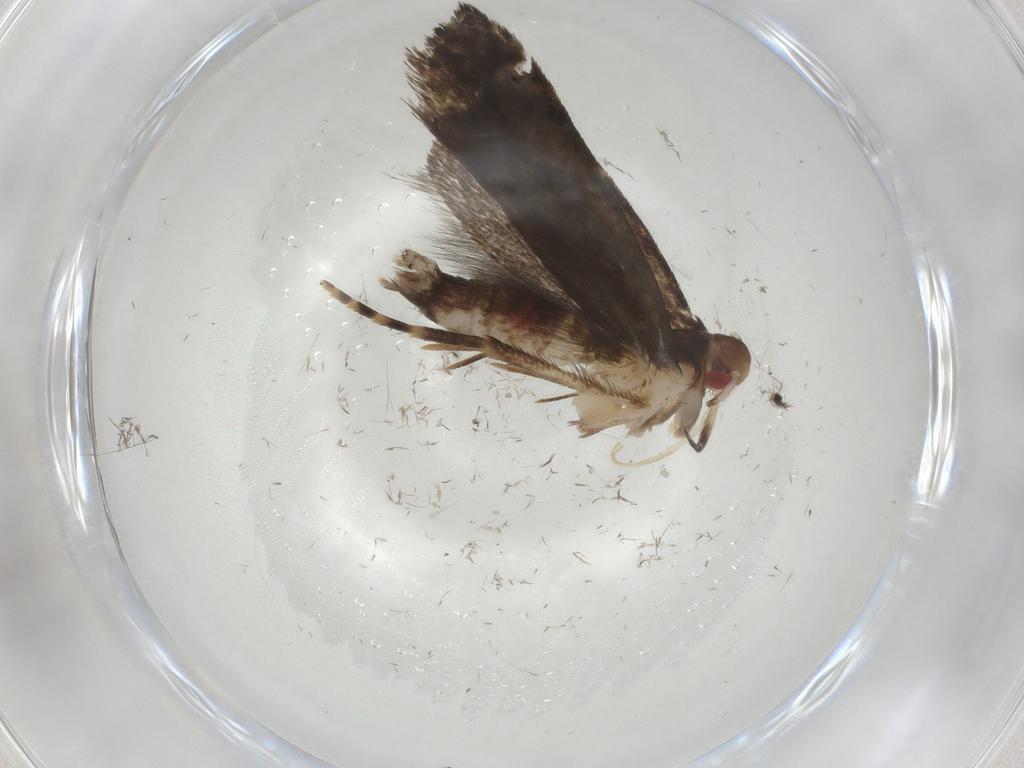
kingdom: Animalia
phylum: Arthropoda
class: Insecta
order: Lepidoptera
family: Gelechiidae
